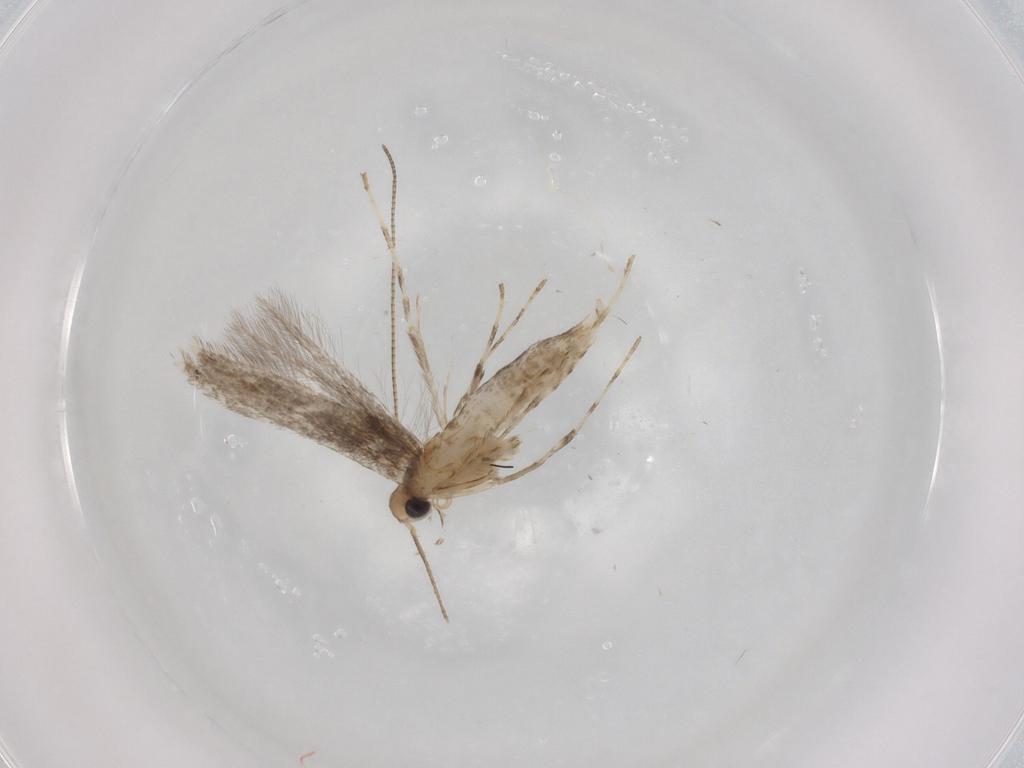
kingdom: Animalia
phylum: Arthropoda
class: Insecta
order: Lepidoptera
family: Gracillariidae
